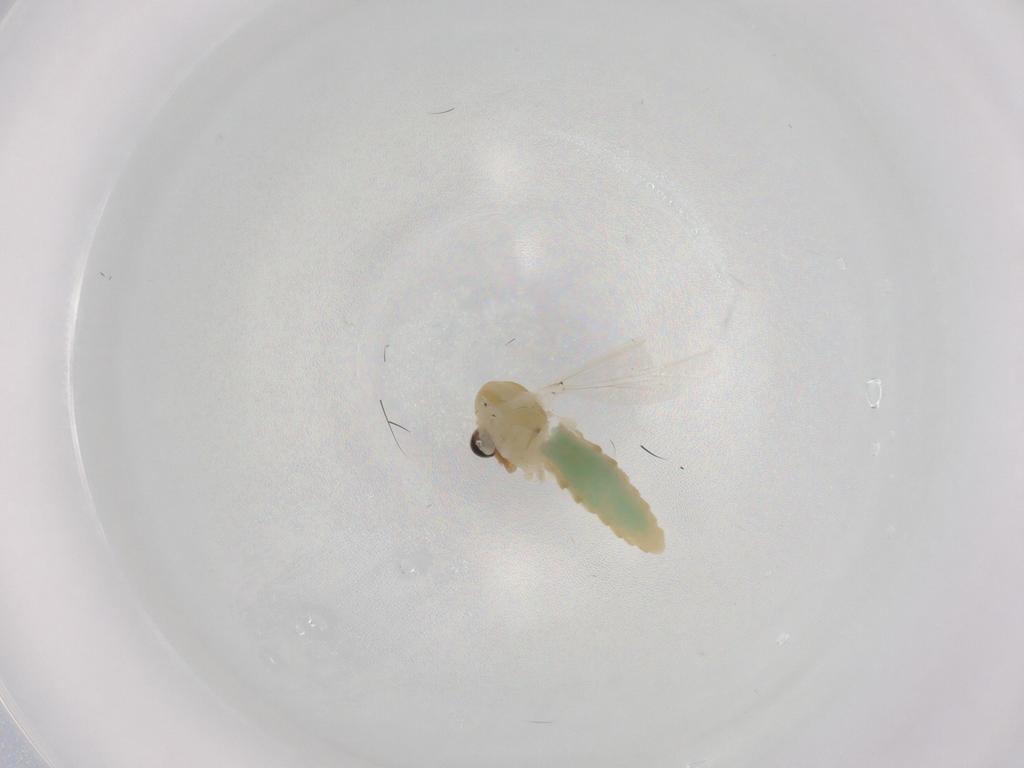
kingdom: Animalia
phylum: Arthropoda
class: Insecta
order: Diptera
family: Chironomidae
